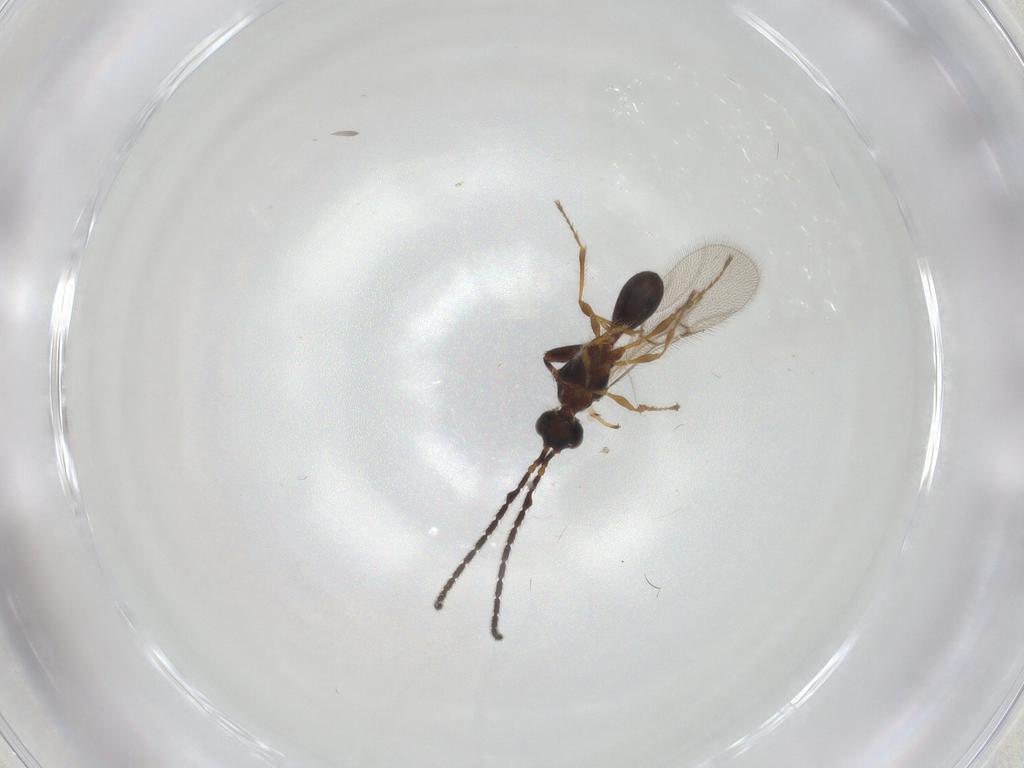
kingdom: Animalia
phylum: Arthropoda
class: Insecta
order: Hymenoptera
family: Diapriidae
